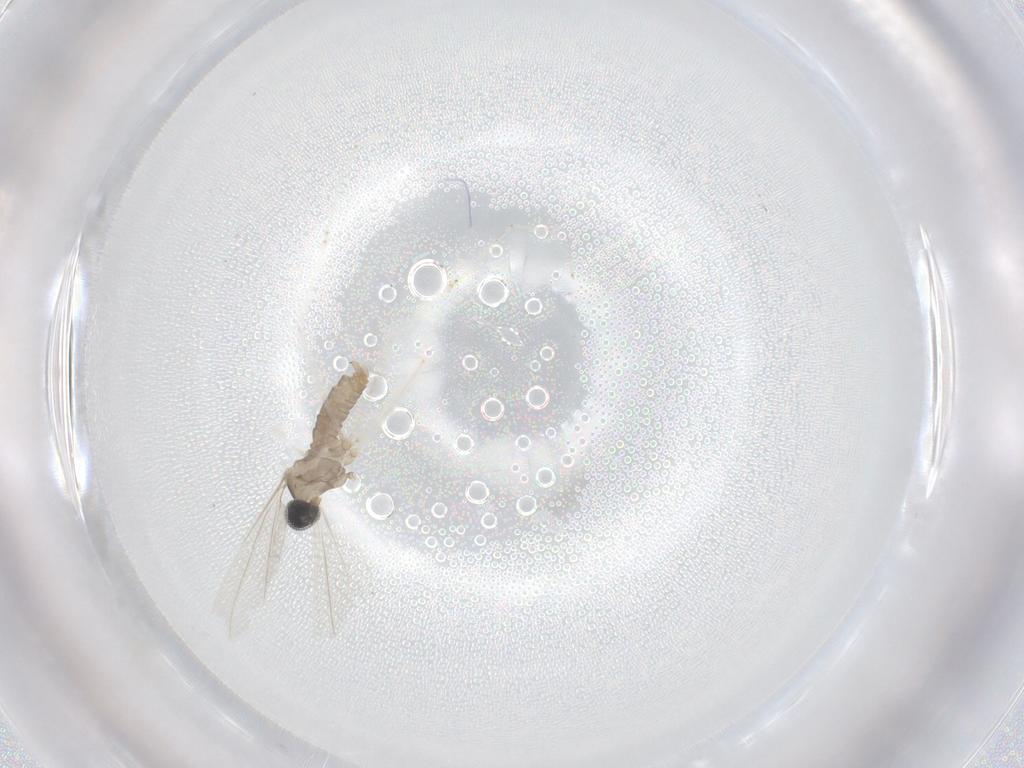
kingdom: Animalia
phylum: Arthropoda
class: Insecta
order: Diptera
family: Cecidomyiidae
